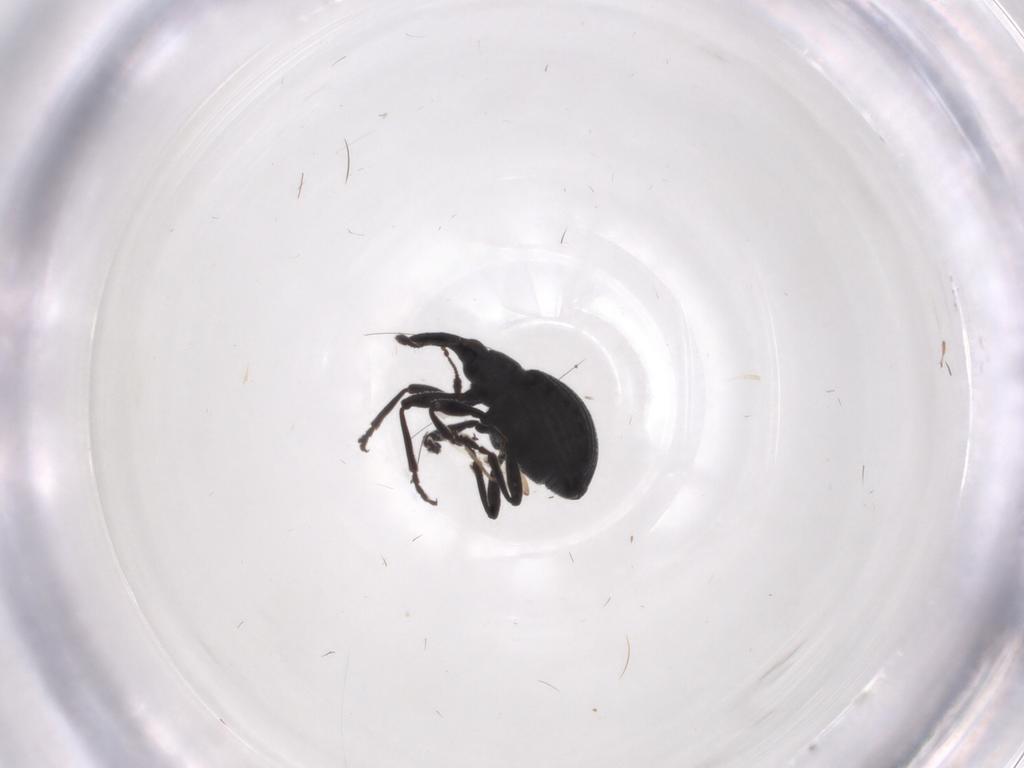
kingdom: Animalia
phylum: Arthropoda
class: Insecta
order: Coleoptera
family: Brentidae
